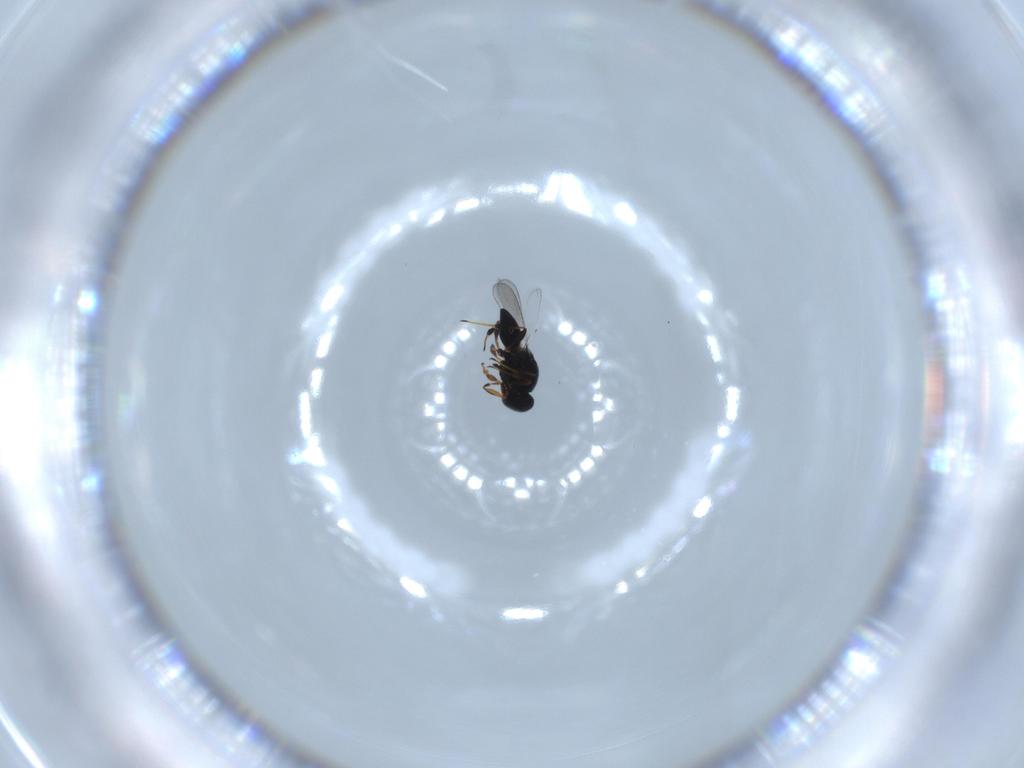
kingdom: Animalia
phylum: Arthropoda
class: Insecta
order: Hymenoptera
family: Platygastridae
